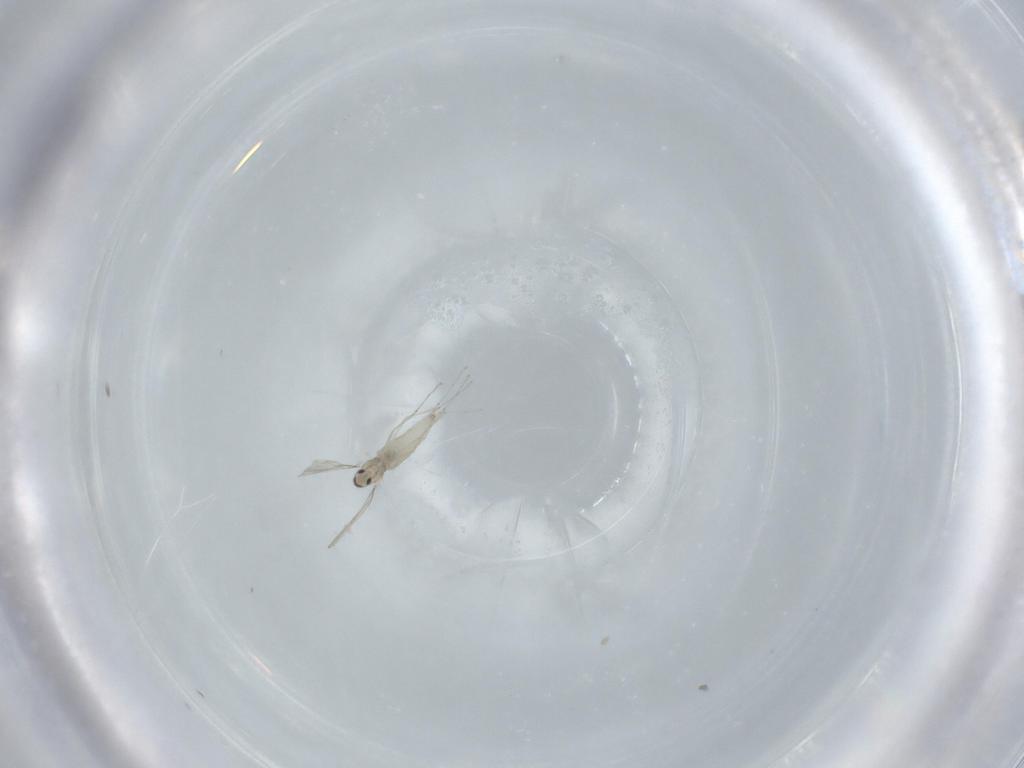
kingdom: Animalia
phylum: Arthropoda
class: Insecta
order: Diptera
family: Cecidomyiidae
